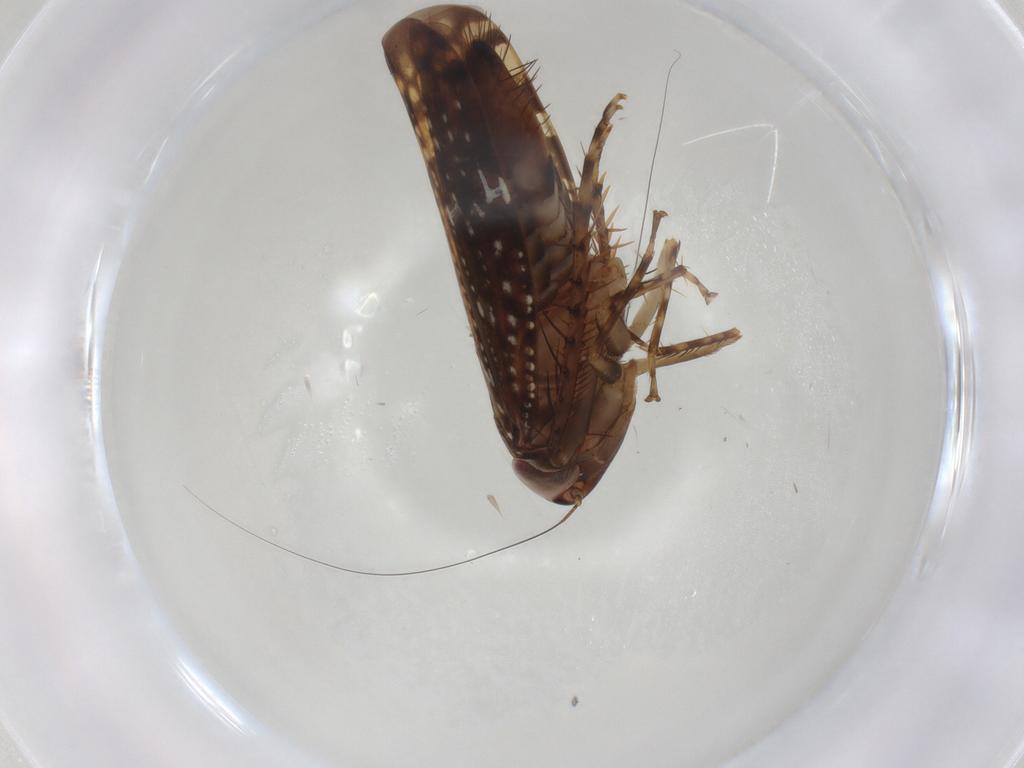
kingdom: Animalia
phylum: Arthropoda
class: Insecta
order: Hemiptera
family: Cicadellidae
